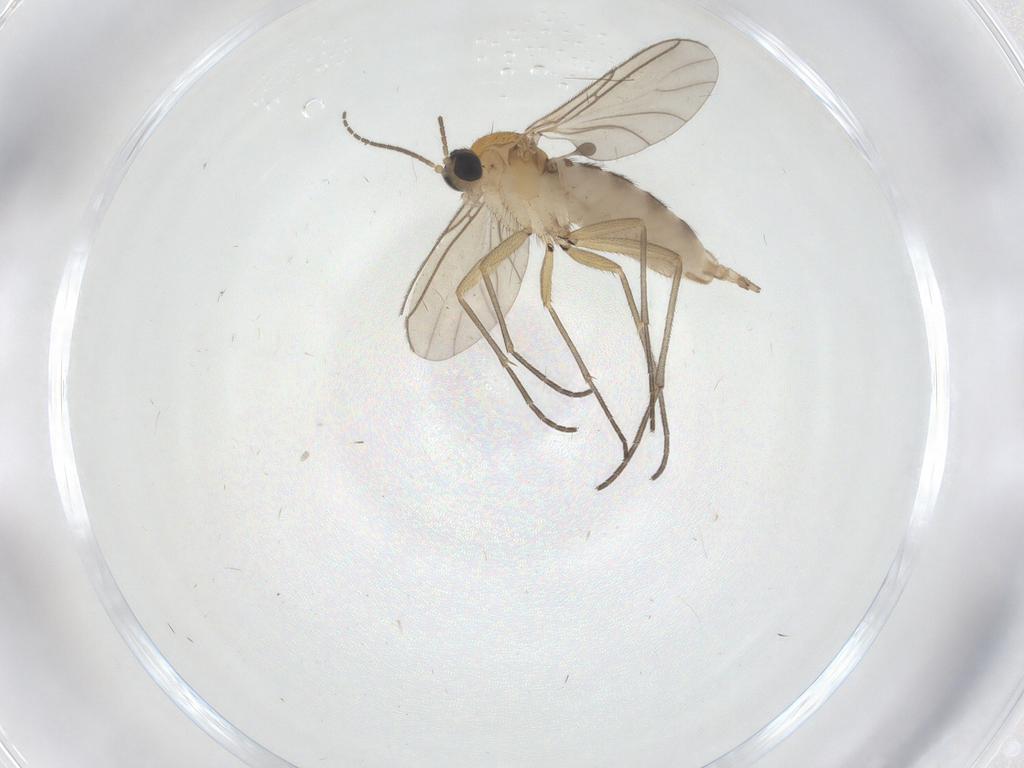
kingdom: Animalia
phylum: Arthropoda
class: Insecta
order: Diptera
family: Sciaridae
